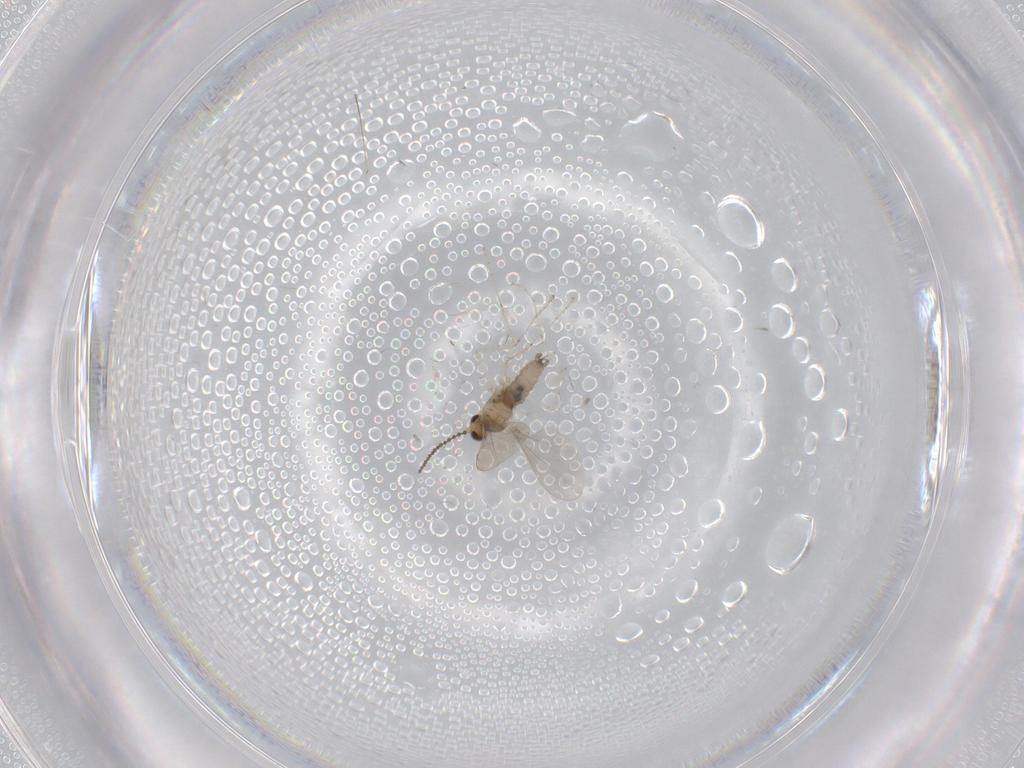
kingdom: Animalia
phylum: Arthropoda
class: Insecta
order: Diptera
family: Cecidomyiidae
